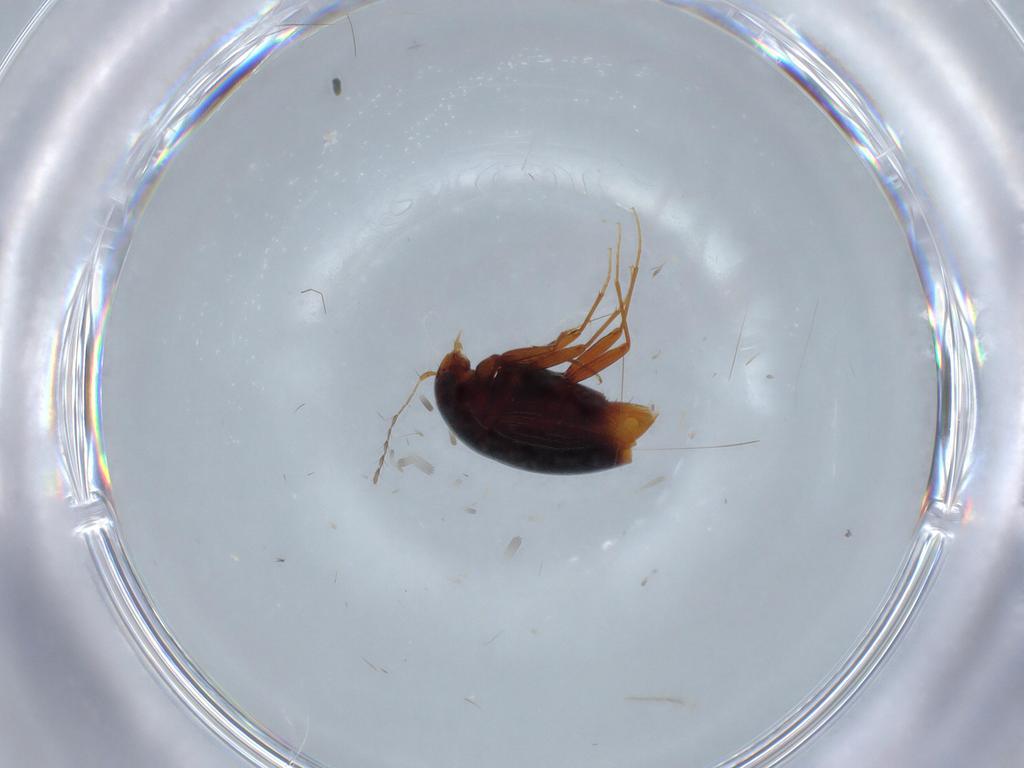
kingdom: Animalia
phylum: Arthropoda
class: Insecta
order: Coleoptera
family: Staphylinidae
